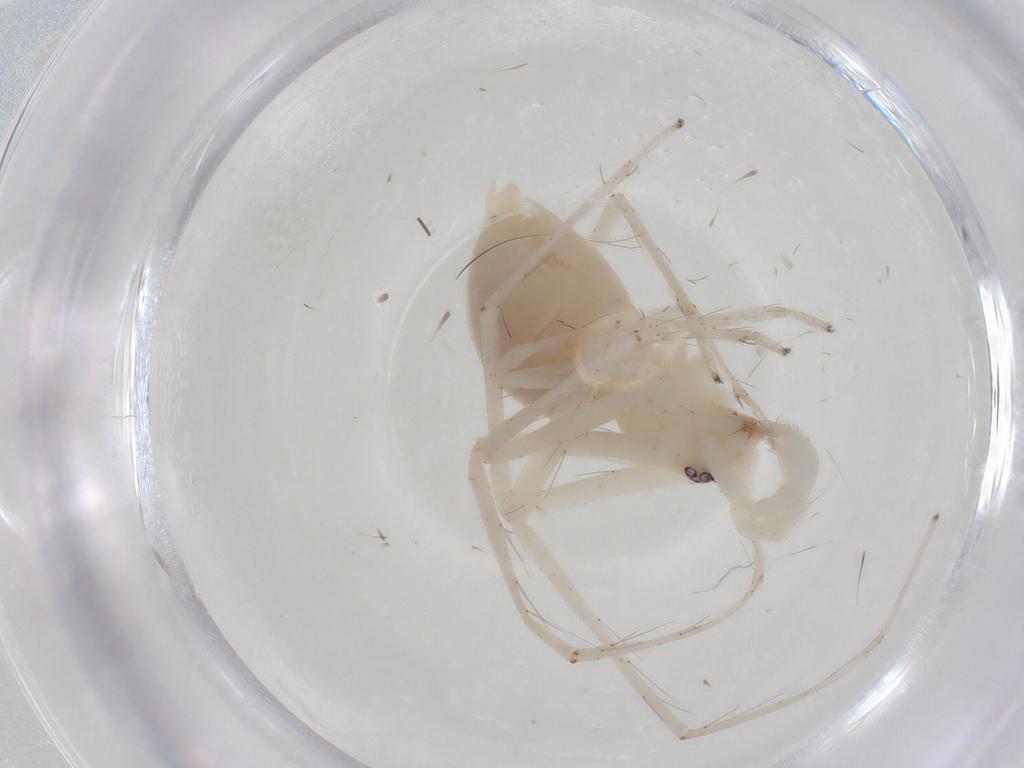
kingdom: Animalia
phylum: Arthropoda
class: Arachnida
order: Araneae
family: Anyphaenidae
